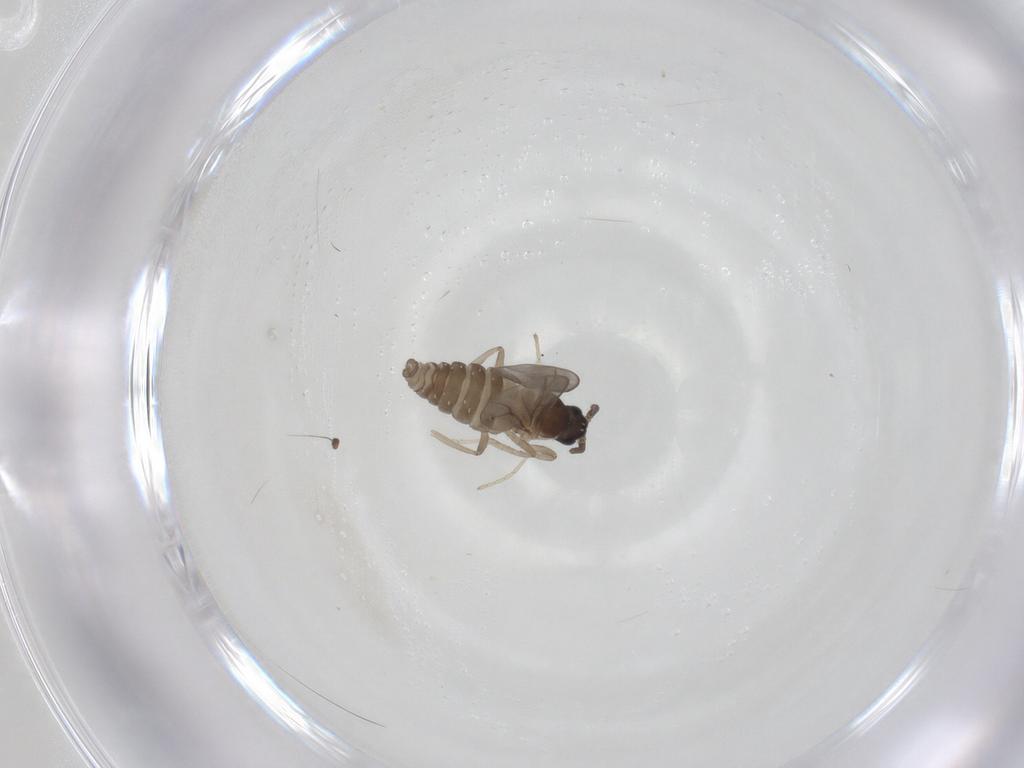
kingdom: Animalia
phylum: Arthropoda
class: Insecta
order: Diptera
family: Cecidomyiidae
